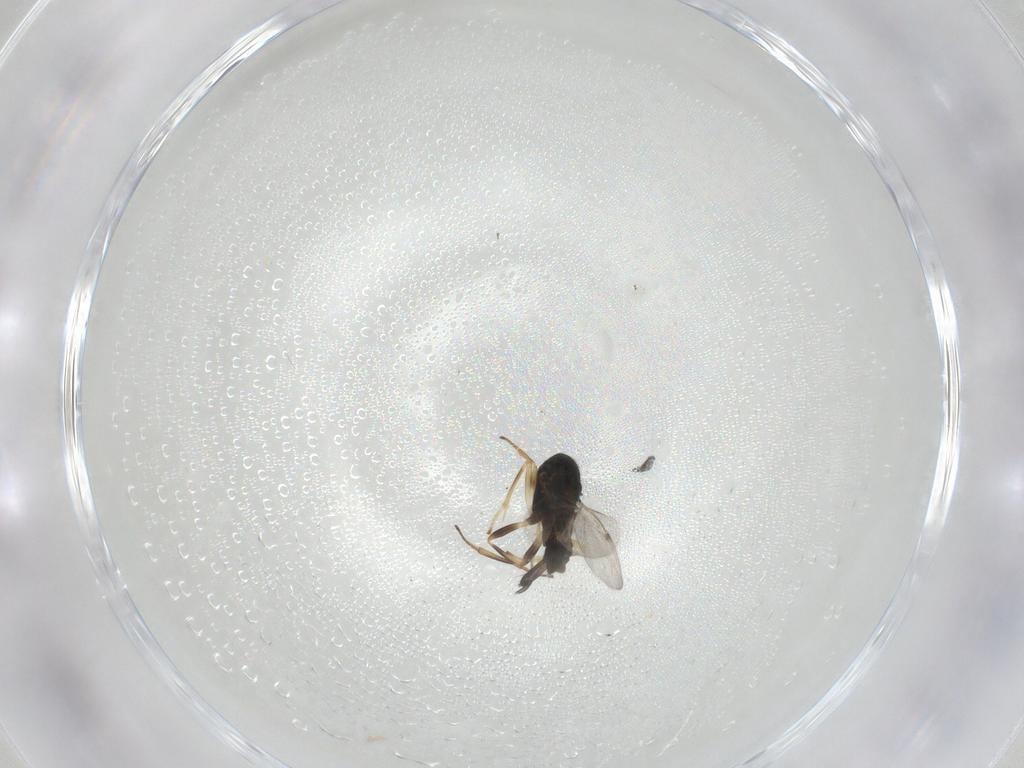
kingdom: Animalia
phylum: Arthropoda
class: Insecta
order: Hymenoptera
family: Encyrtidae
